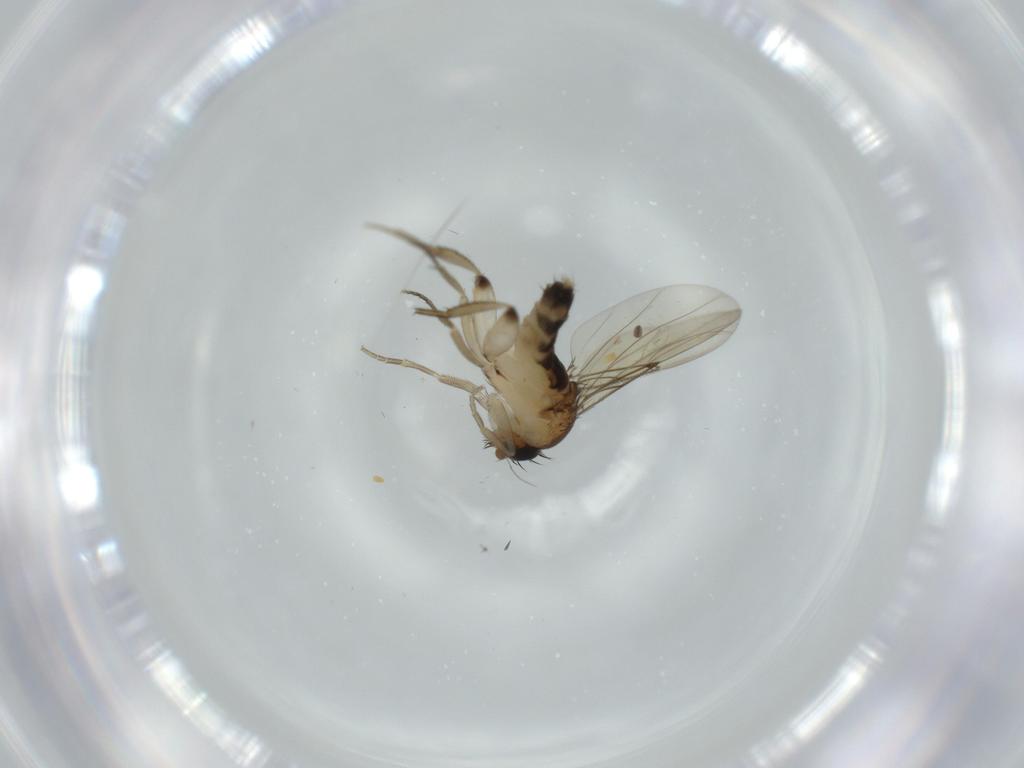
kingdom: Animalia
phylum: Arthropoda
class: Insecta
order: Diptera
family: Phoridae
